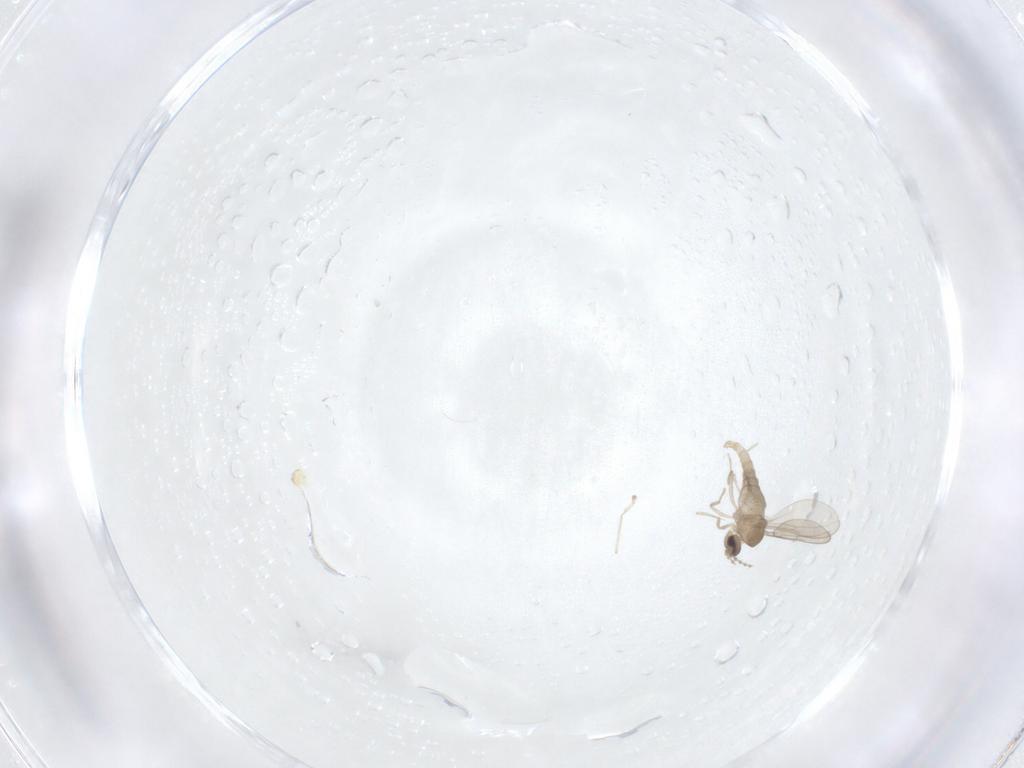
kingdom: Animalia
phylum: Arthropoda
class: Insecta
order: Diptera
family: Cecidomyiidae
